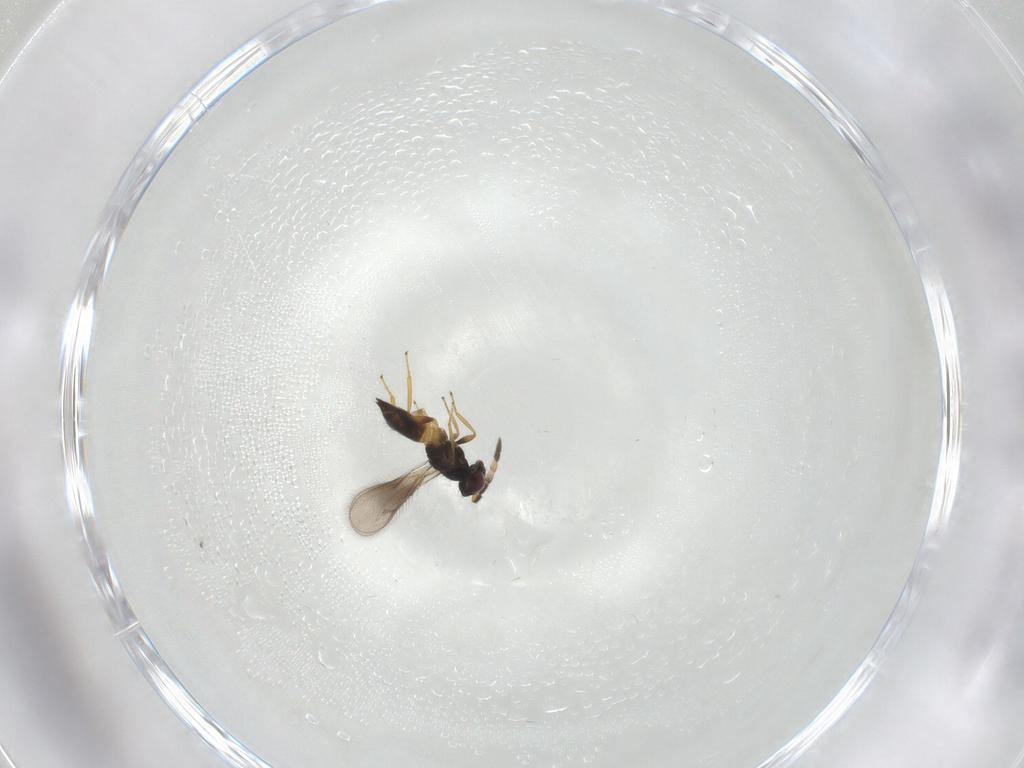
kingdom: Animalia
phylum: Arthropoda
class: Insecta
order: Hymenoptera
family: Eulophidae
